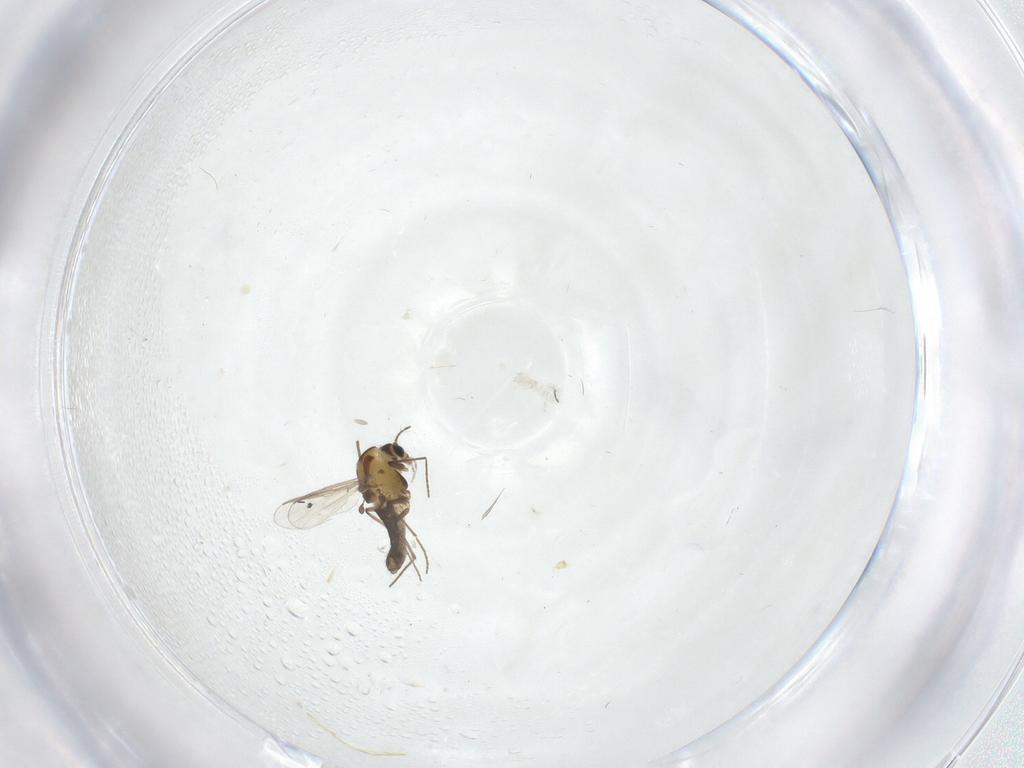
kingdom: Animalia
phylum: Arthropoda
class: Insecta
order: Diptera
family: Chironomidae
